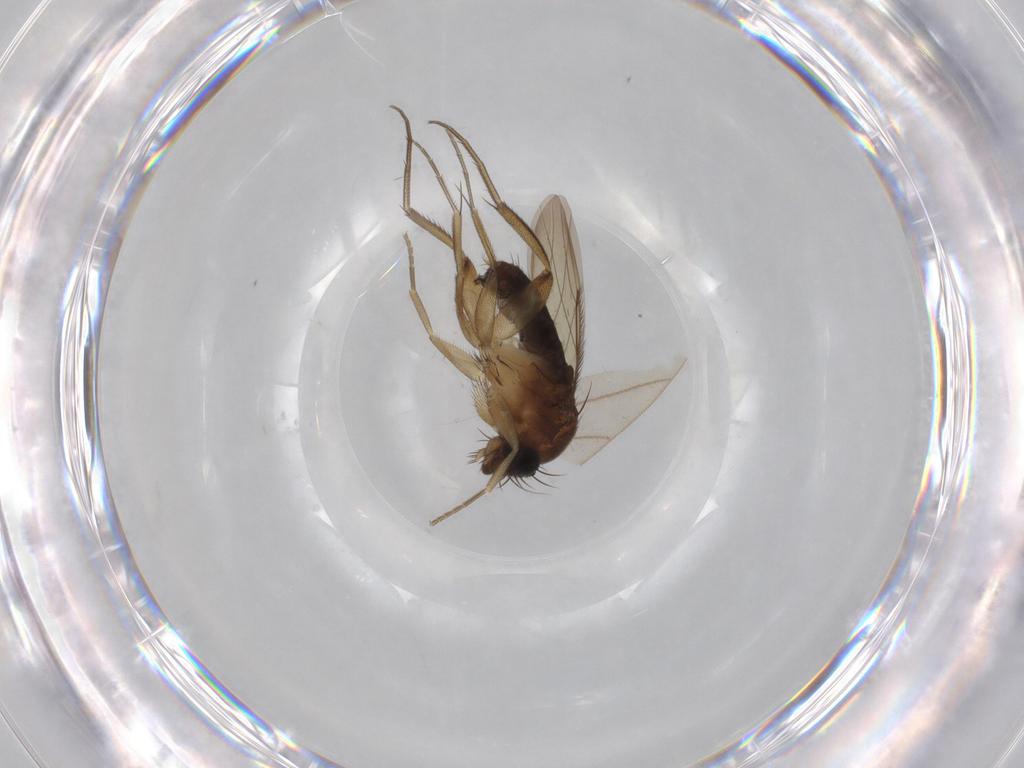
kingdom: Animalia
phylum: Arthropoda
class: Insecta
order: Diptera
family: Phoridae
